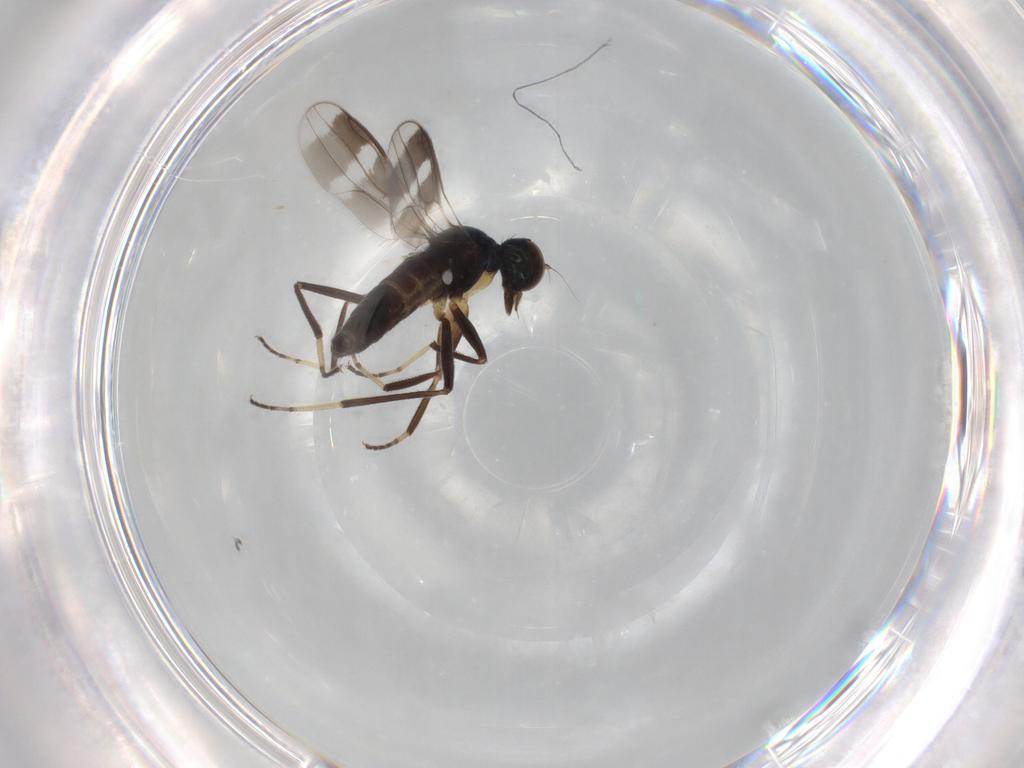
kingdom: Animalia
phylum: Arthropoda
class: Insecta
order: Diptera
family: Hybotidae
